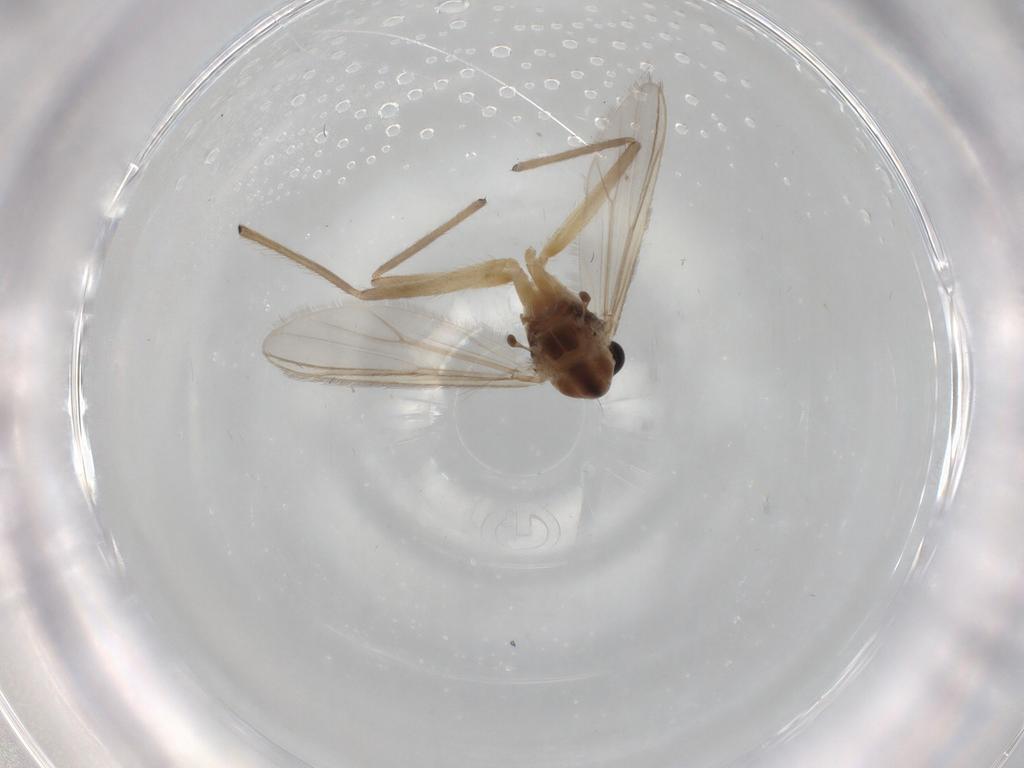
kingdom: Animalia
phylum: Arthropoda
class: Insecta
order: Diptera
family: Chironomidae
